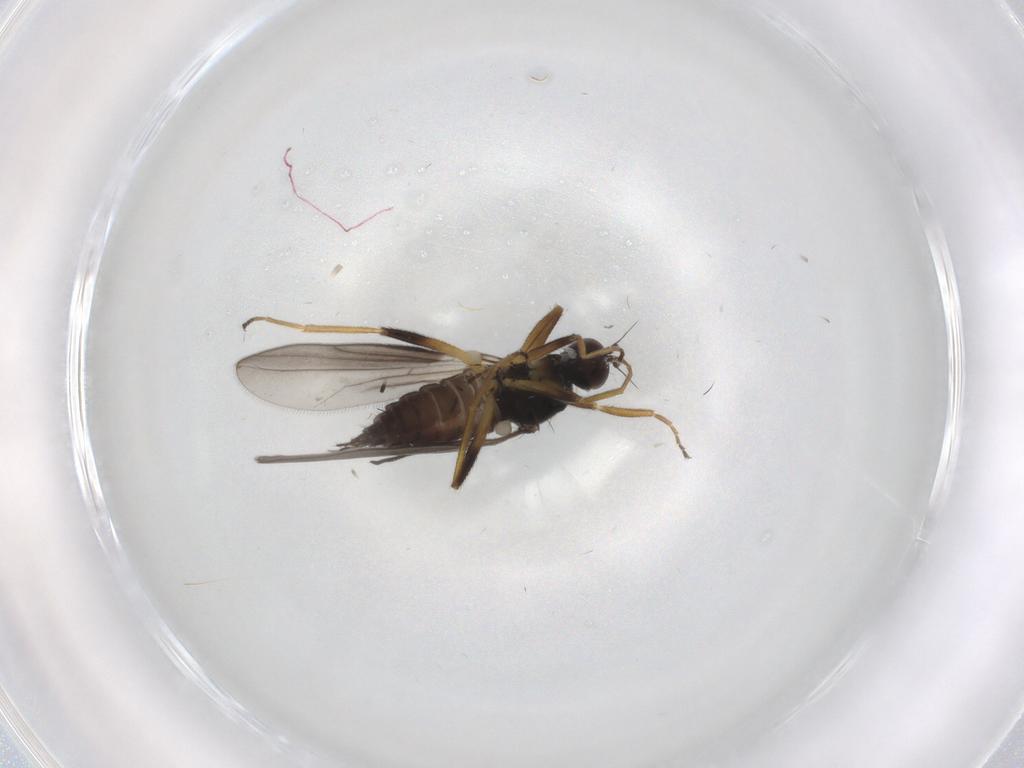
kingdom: Animalia
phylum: Arthropoda
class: Insecta
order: Diptera
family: Hybotidae
